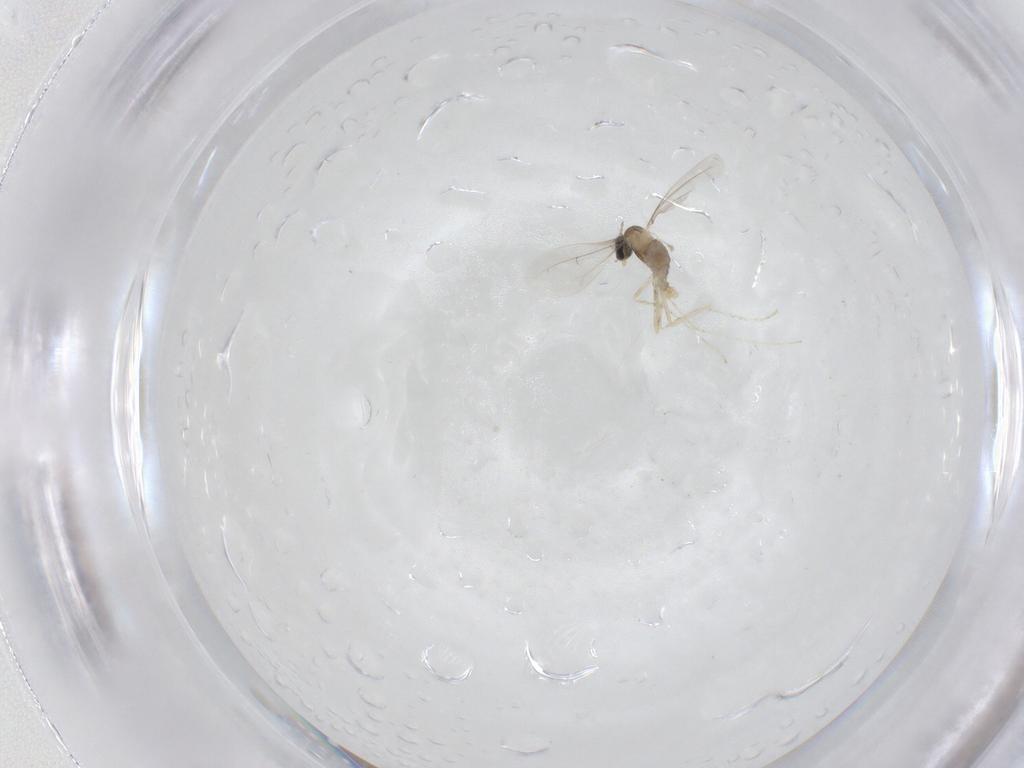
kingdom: Animalia
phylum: Arthropoda
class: Insecta
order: Diptera
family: Cecidomyiidae
